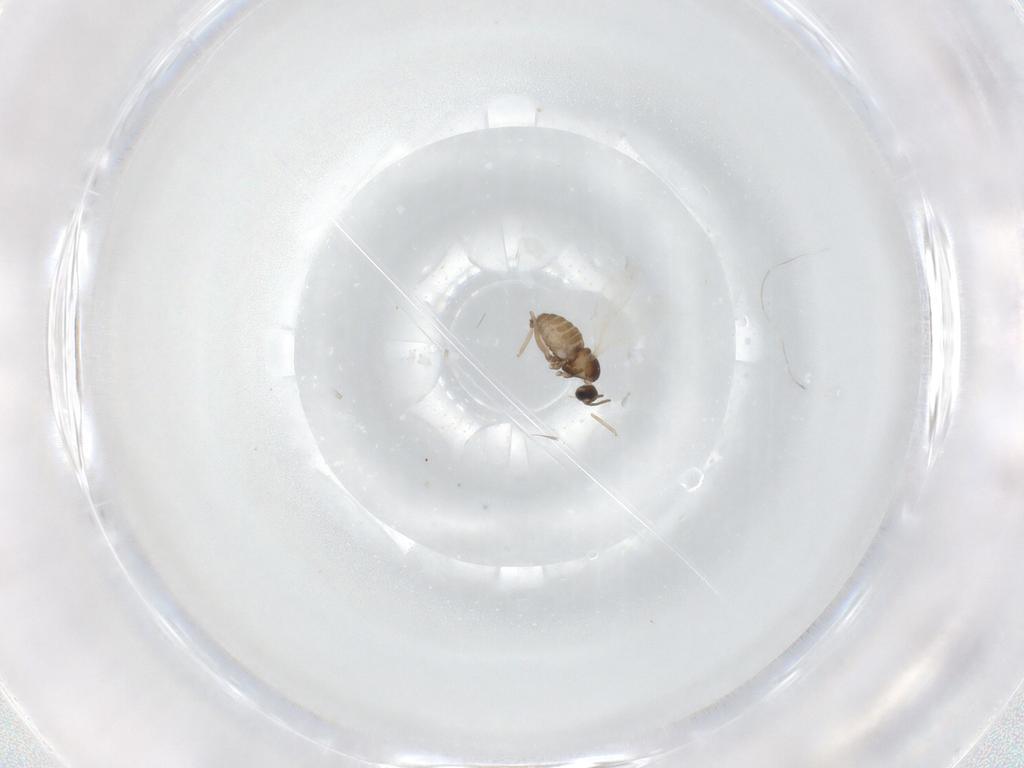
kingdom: Animalia
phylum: Arthropoda
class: Insecta
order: Diptera
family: Cecidomyiidae
